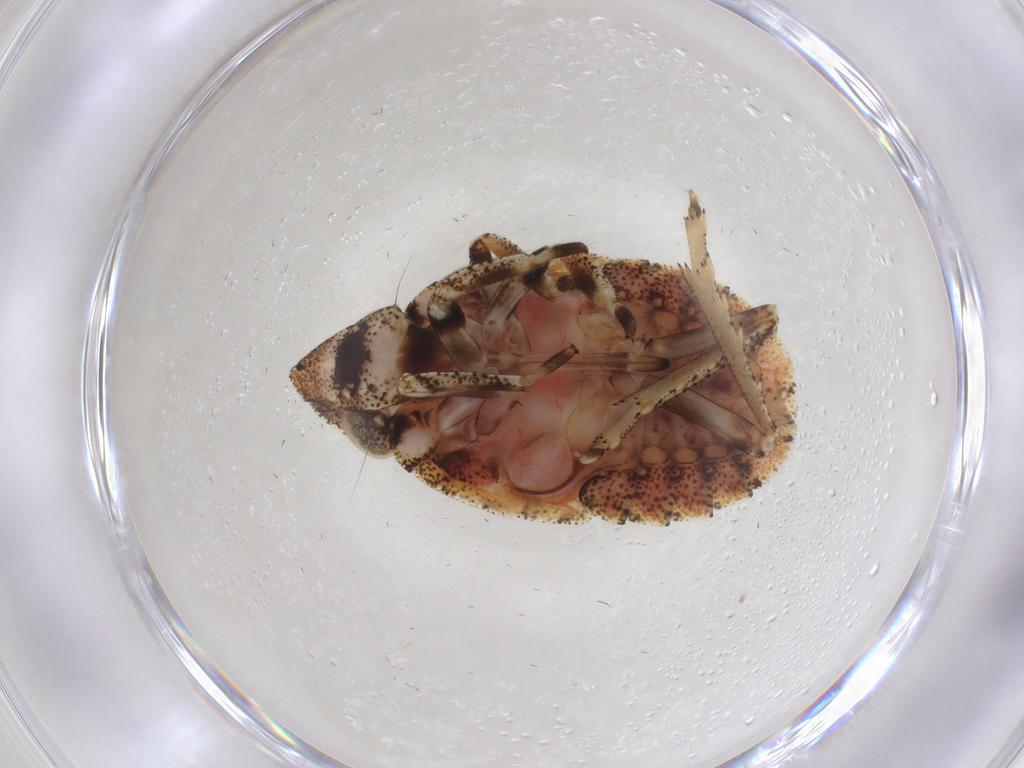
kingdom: Animalia
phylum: Arthropoda
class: Insecta
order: Hemiptera
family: Gengidae
